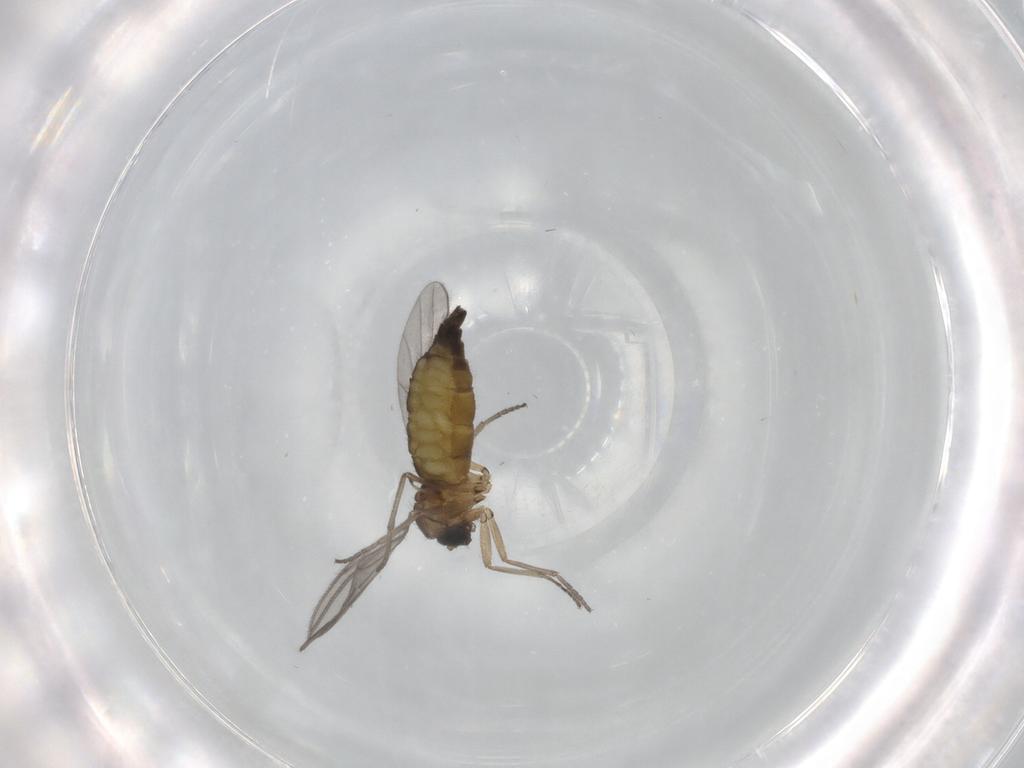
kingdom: Animalia
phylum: Arthropoda
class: Insecta
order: Diptera
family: Sciaridae
